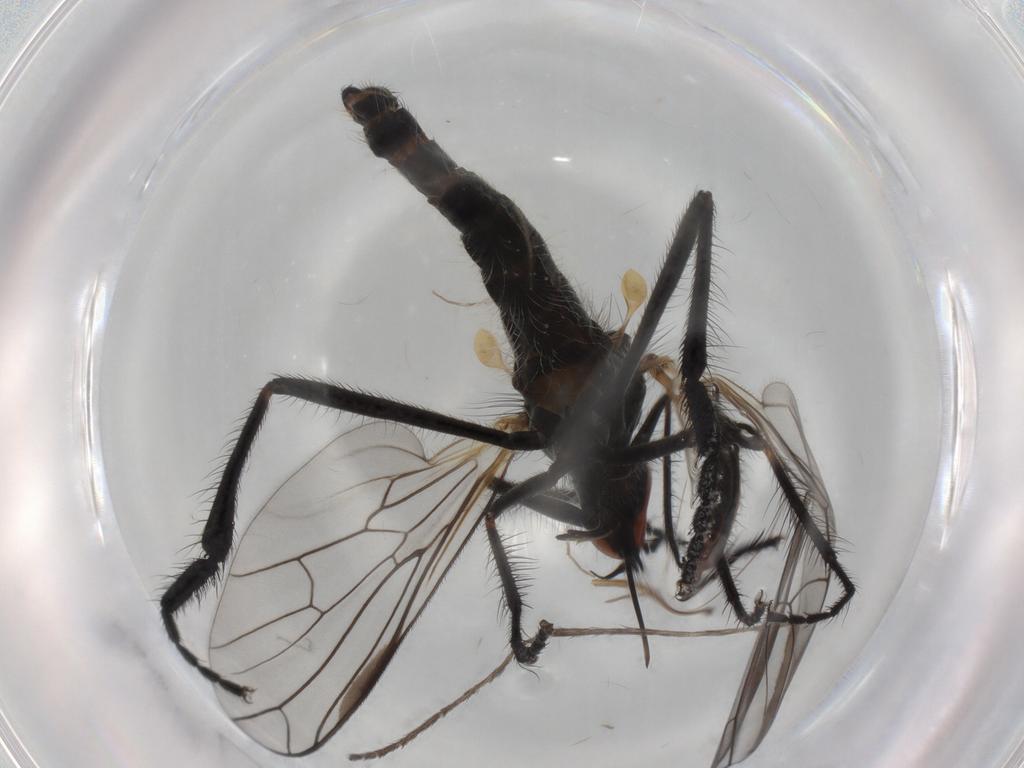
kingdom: Animalia
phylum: Arthropoda
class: Insecta
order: Diptera
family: Empididae
